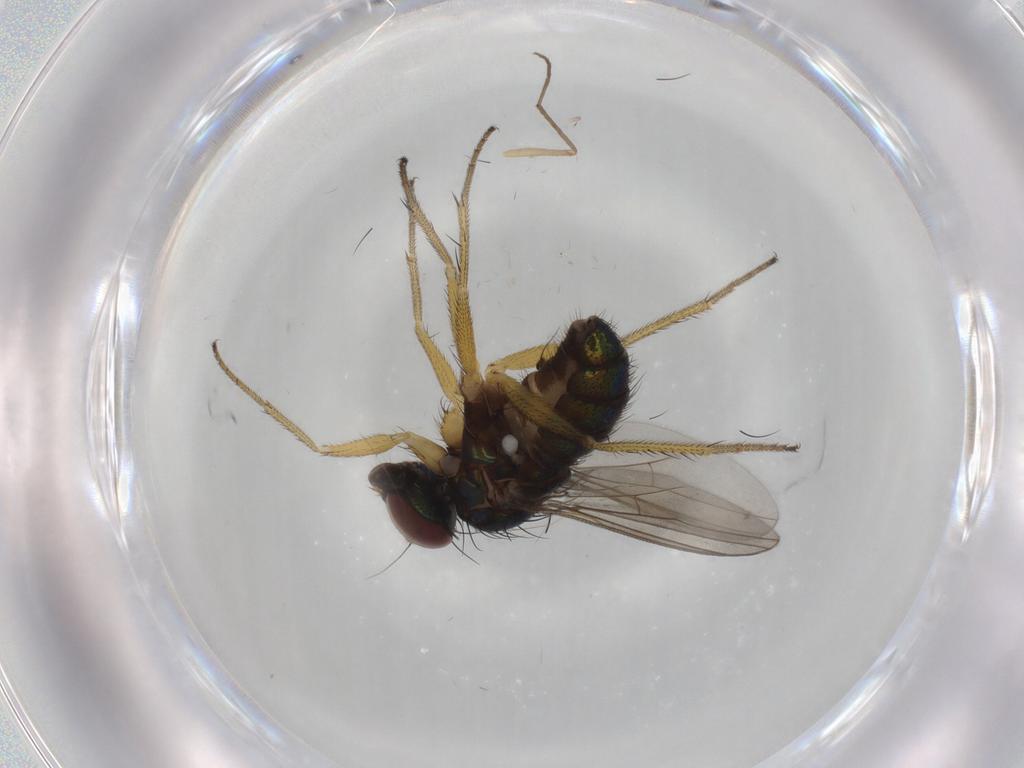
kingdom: Animalia
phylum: Arthropoda
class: Insecta
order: Diptera
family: Dolichopodidae
